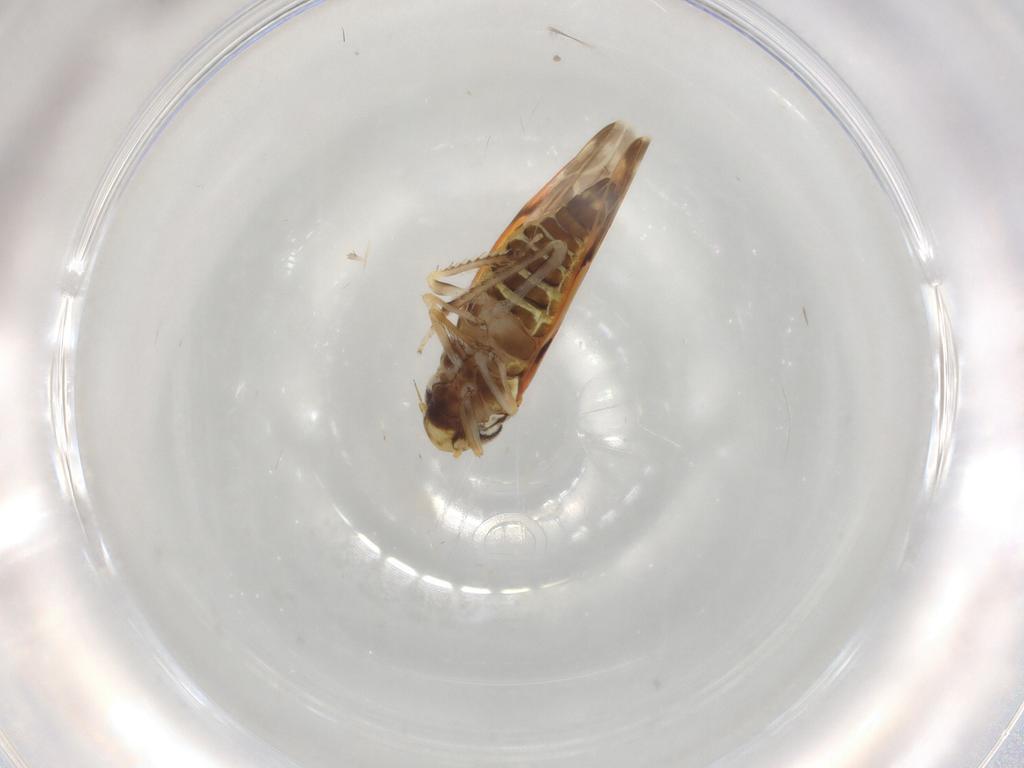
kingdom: Animalia
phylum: Arthropoda
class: Insecta
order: Hemiptera
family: Cicadellidae
